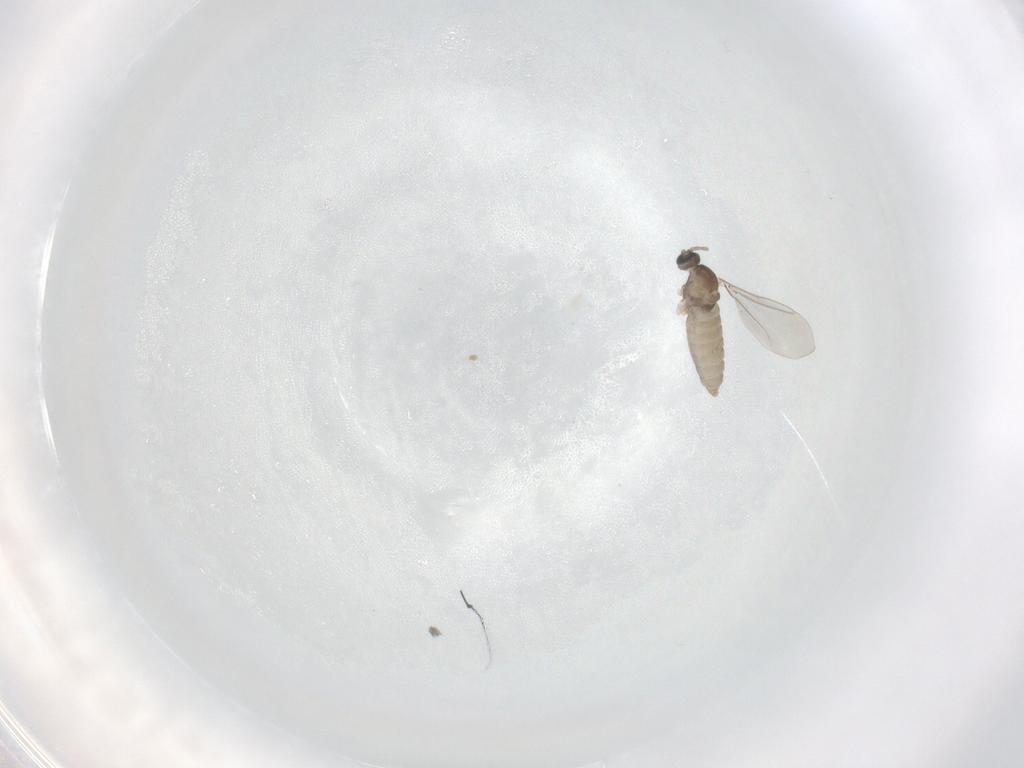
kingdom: Animalia
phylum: Arthropoda
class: Insecta
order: Diptera
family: Cecidomyiidae
